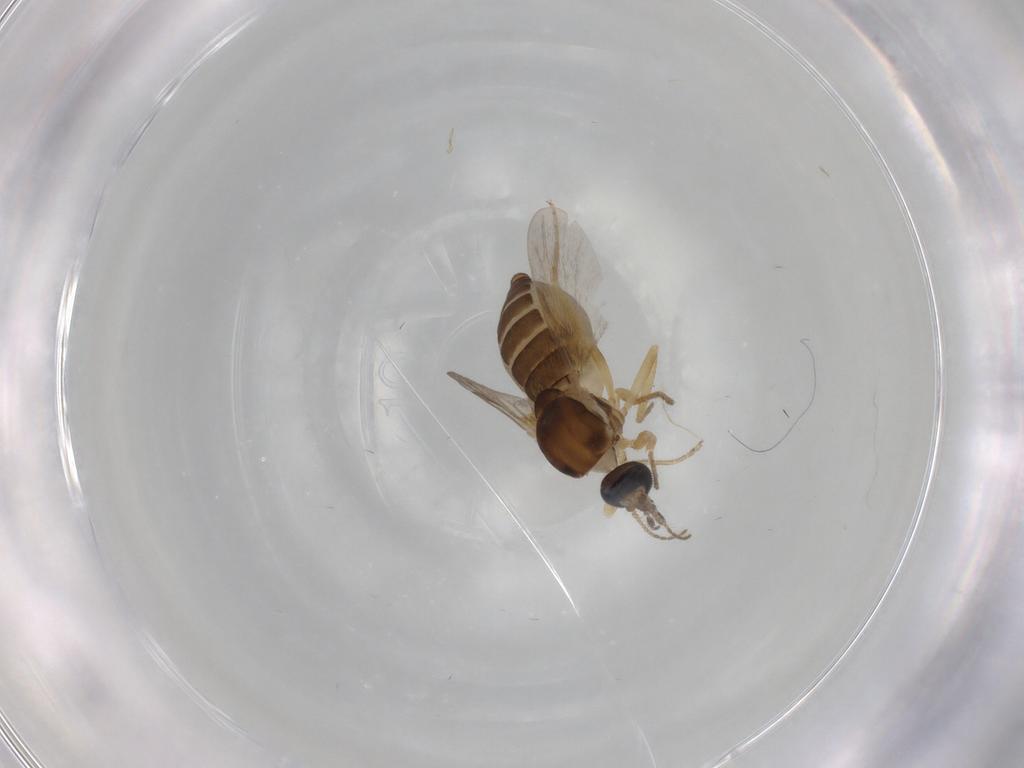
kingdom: Animalia
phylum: Arthropoda
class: Insecta
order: Diptera
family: Ceratopogonidae
